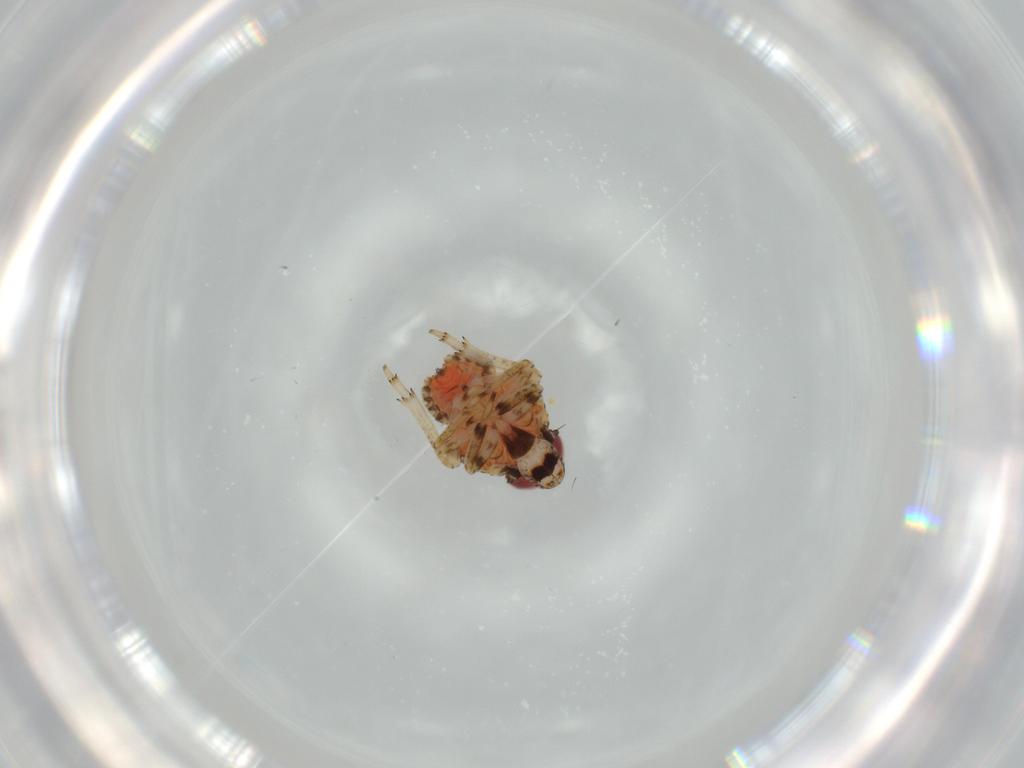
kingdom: Animalia
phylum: Arthropoda
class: Insecta
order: Hemiptera
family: Issidae
